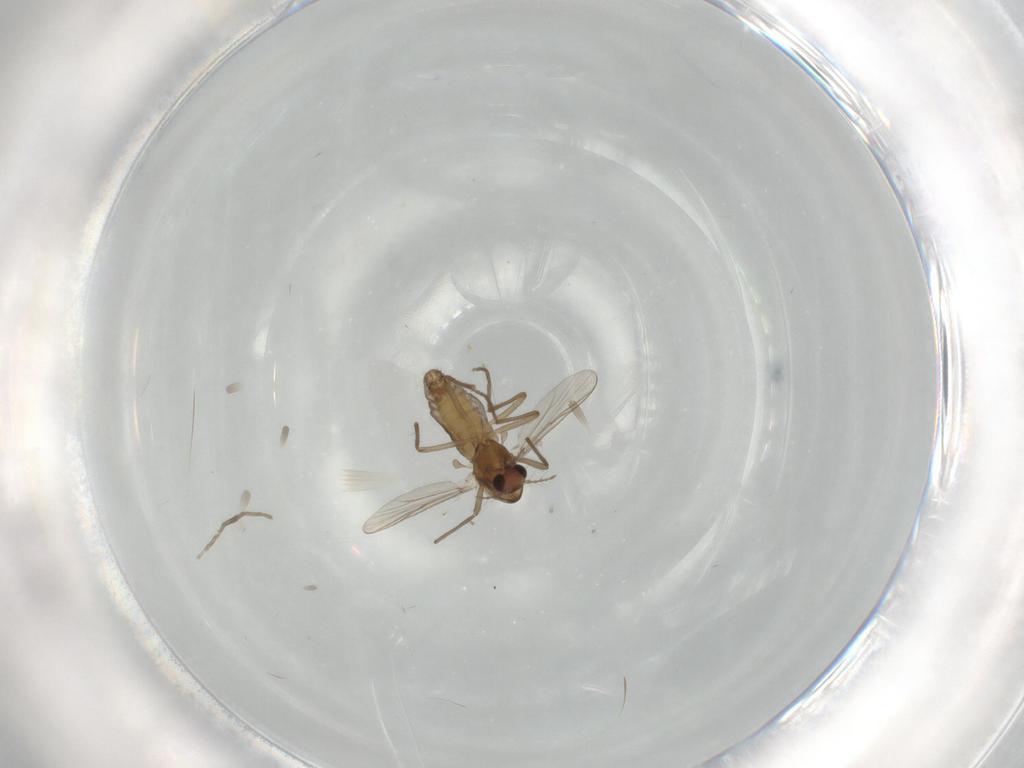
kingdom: Animalia
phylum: Arthropoda
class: Insecta
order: Diptera
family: Chironomidae
